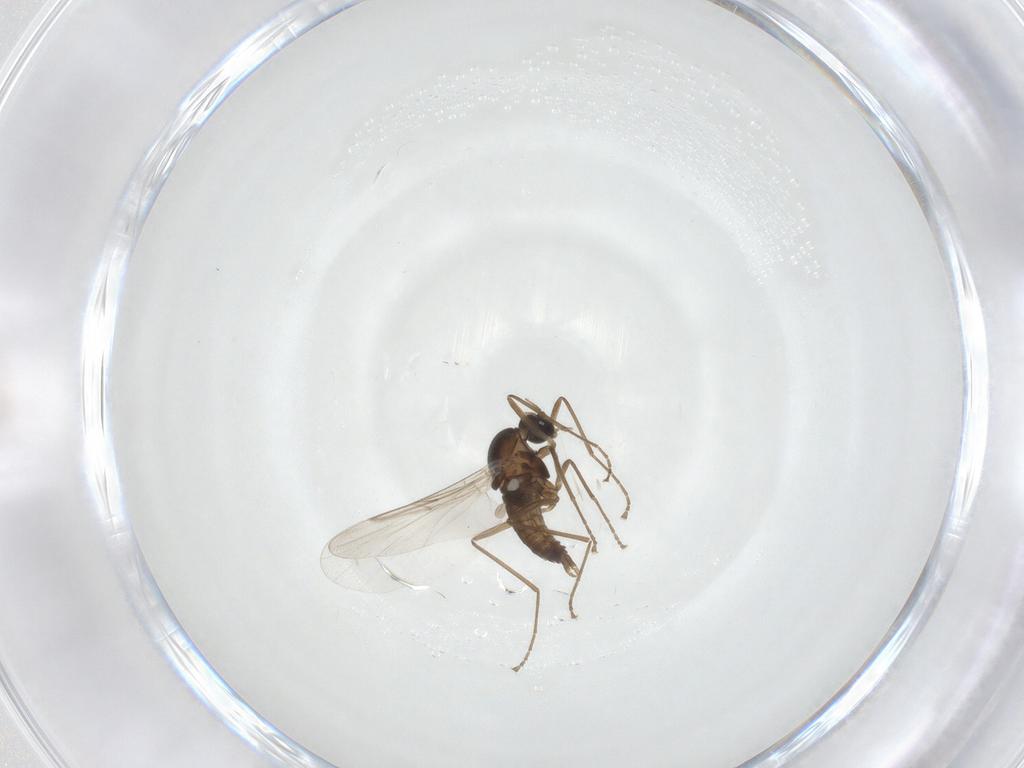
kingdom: Animalia
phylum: Arthropoda
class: Insecta
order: Diptera
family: Cecidomyiidae
